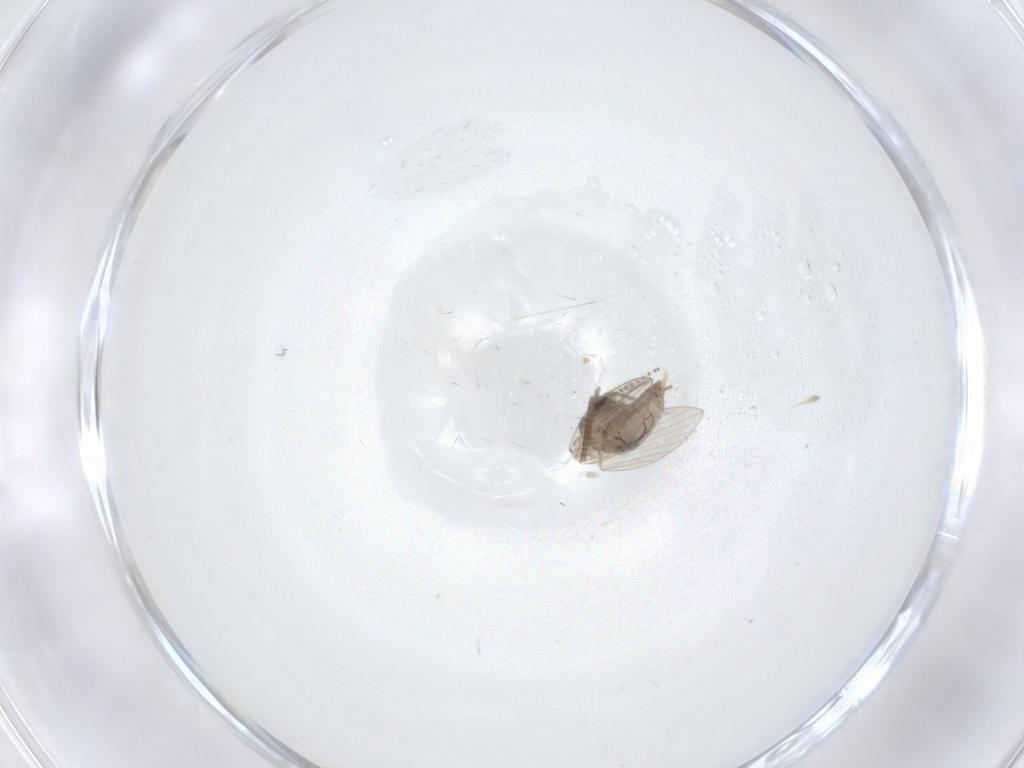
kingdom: Animalia
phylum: Arthropoda
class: Insecta
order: Diptera
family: Psychodidae
